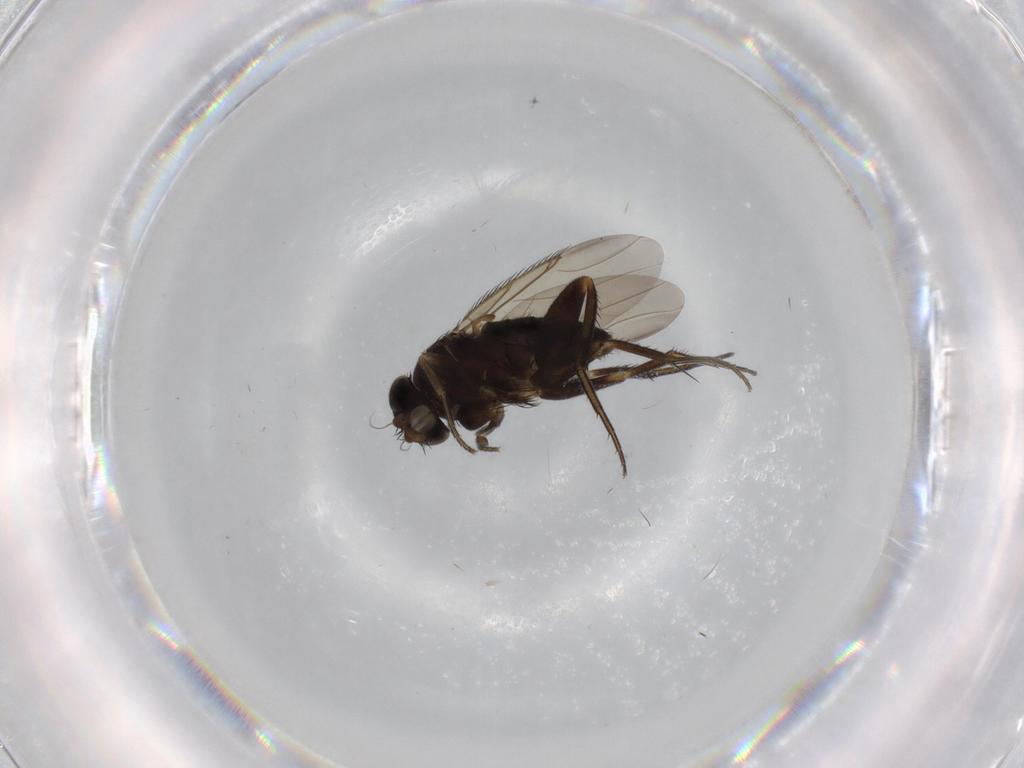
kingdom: Animalia
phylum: Arthropoda
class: Insecta
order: Diptera
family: Phoridae
